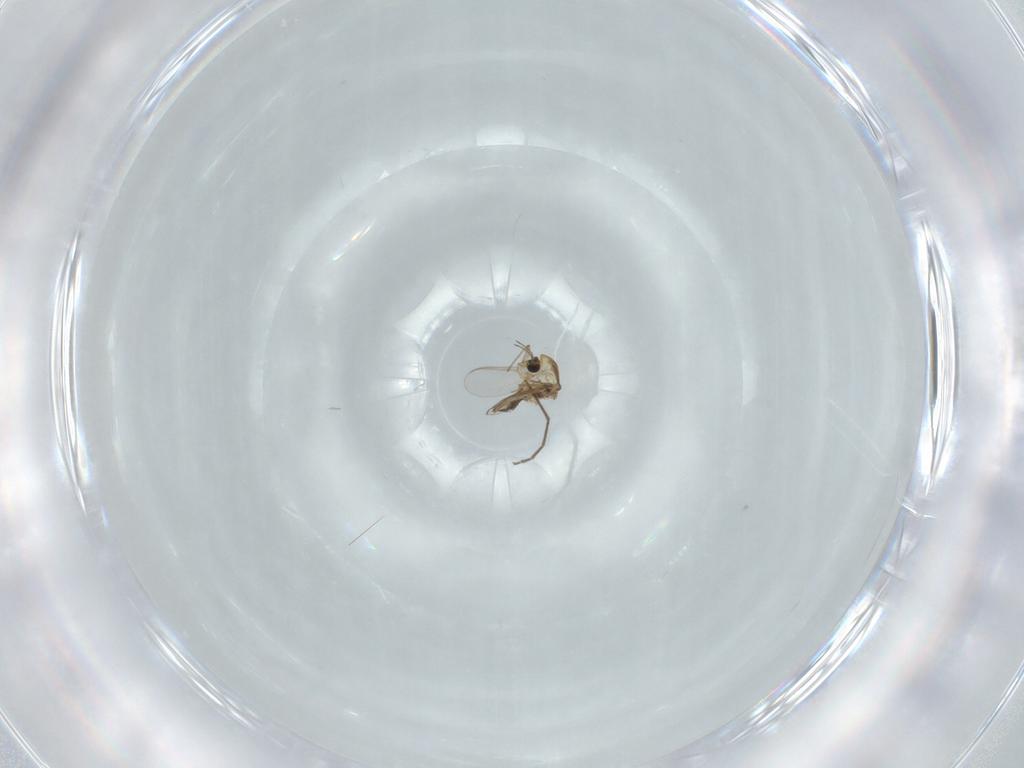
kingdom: Animalia
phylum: Arthropoda
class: Insecta
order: Diptera
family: Chironomidae
